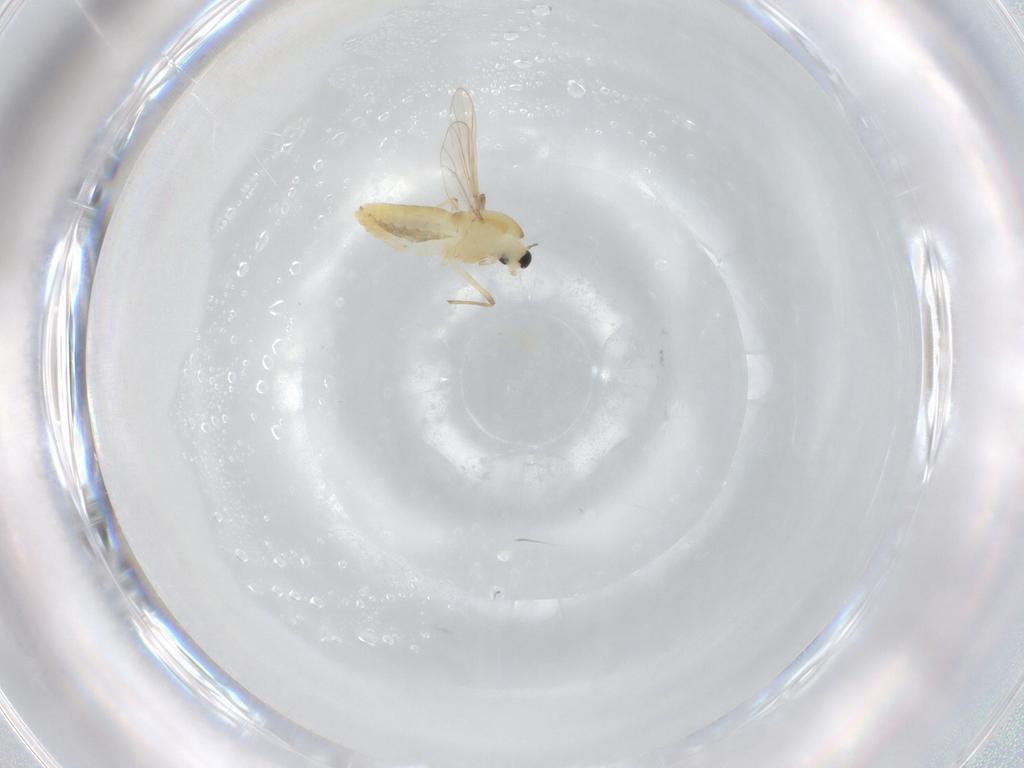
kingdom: Animalia
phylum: Arthropoda
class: Insecta
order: Diptera
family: Chironomidae
